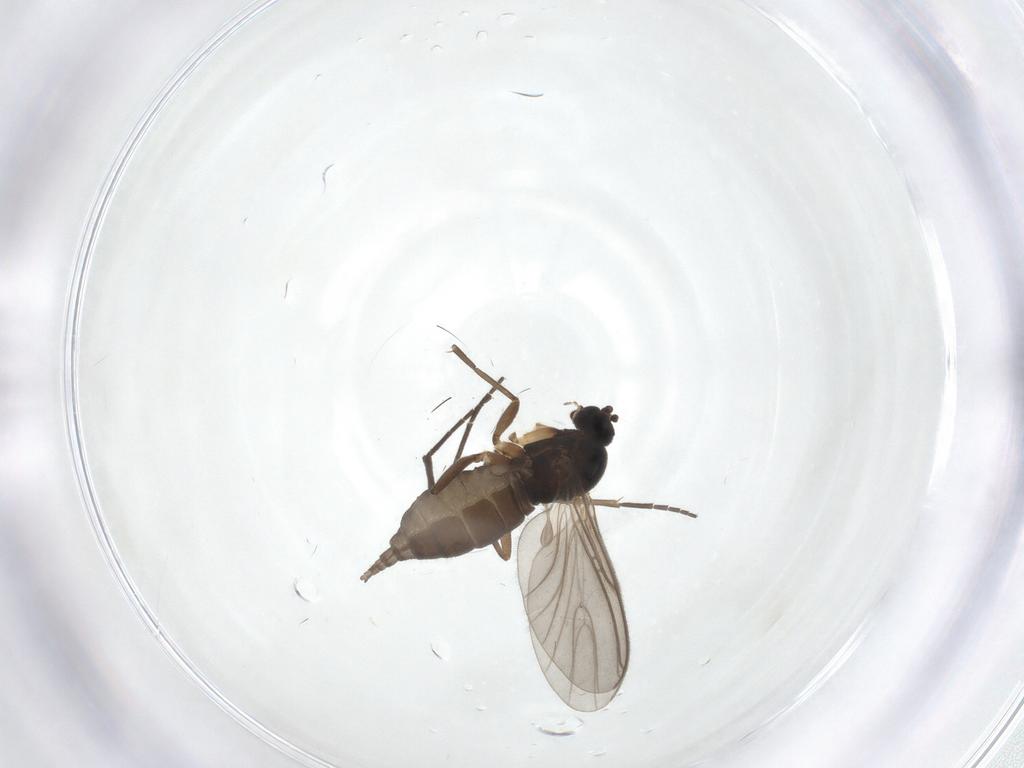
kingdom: Animalia
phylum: Arthropoda
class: Insecta
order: Diptera
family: Sciaridae
